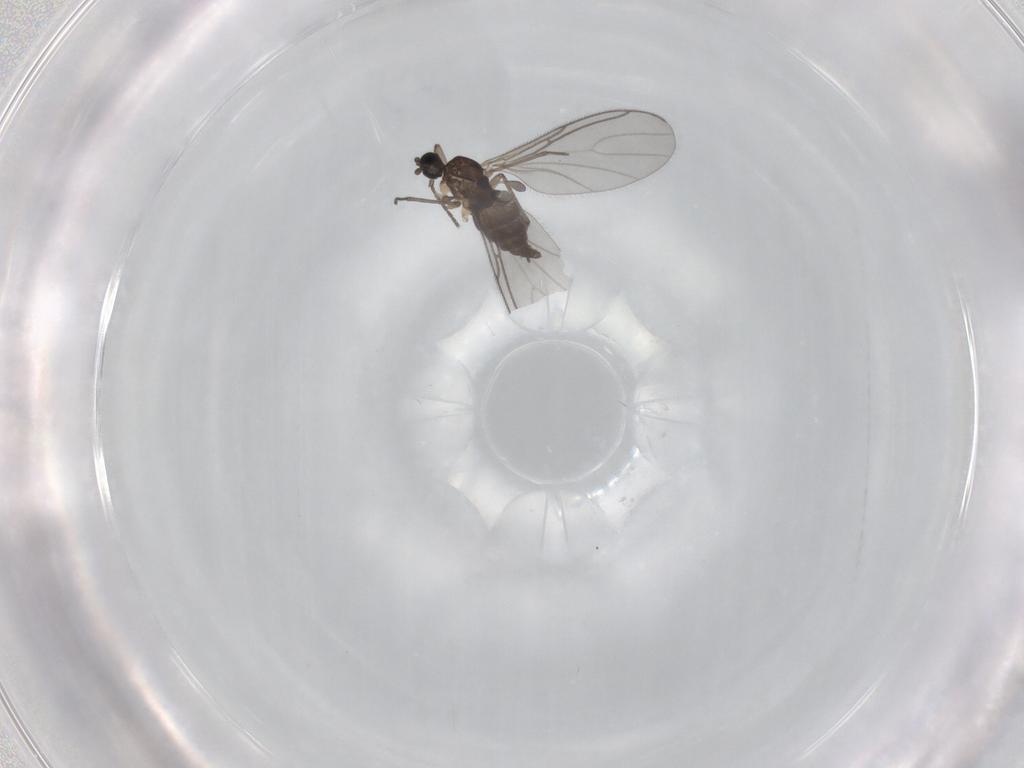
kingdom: Animalia
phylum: Arthropoda
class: Insecta
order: Diptera
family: Sciaridae
